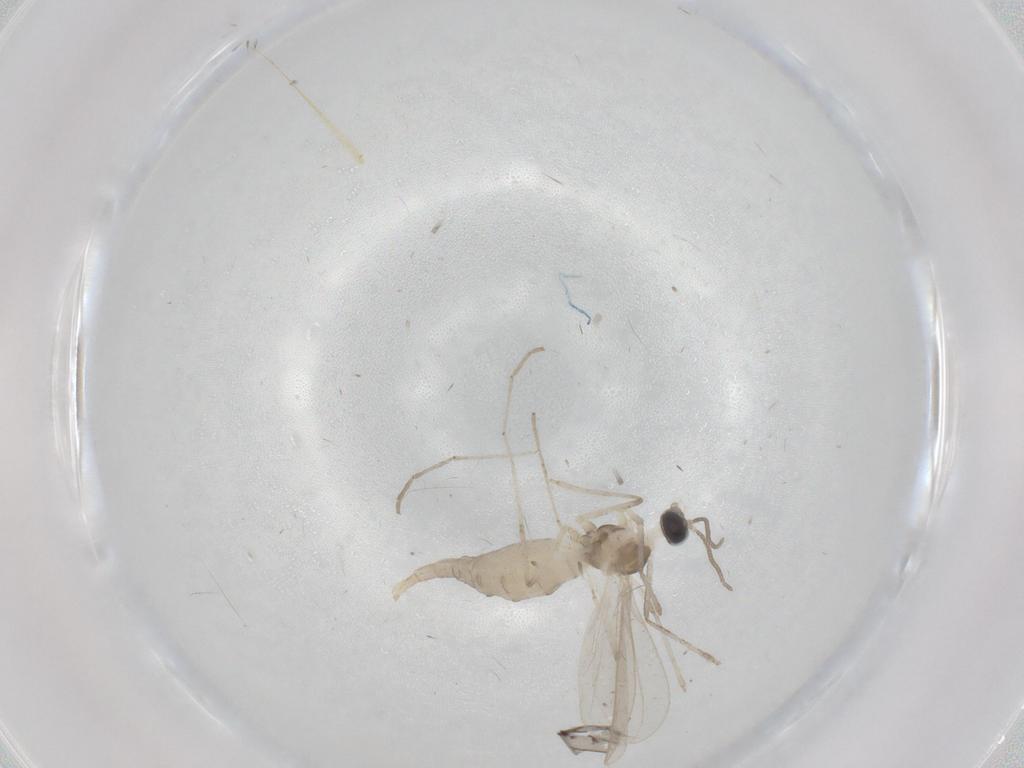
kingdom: Animalia
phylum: Arthropoda
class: Insecta
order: Diptera
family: Cecidomyiidae
